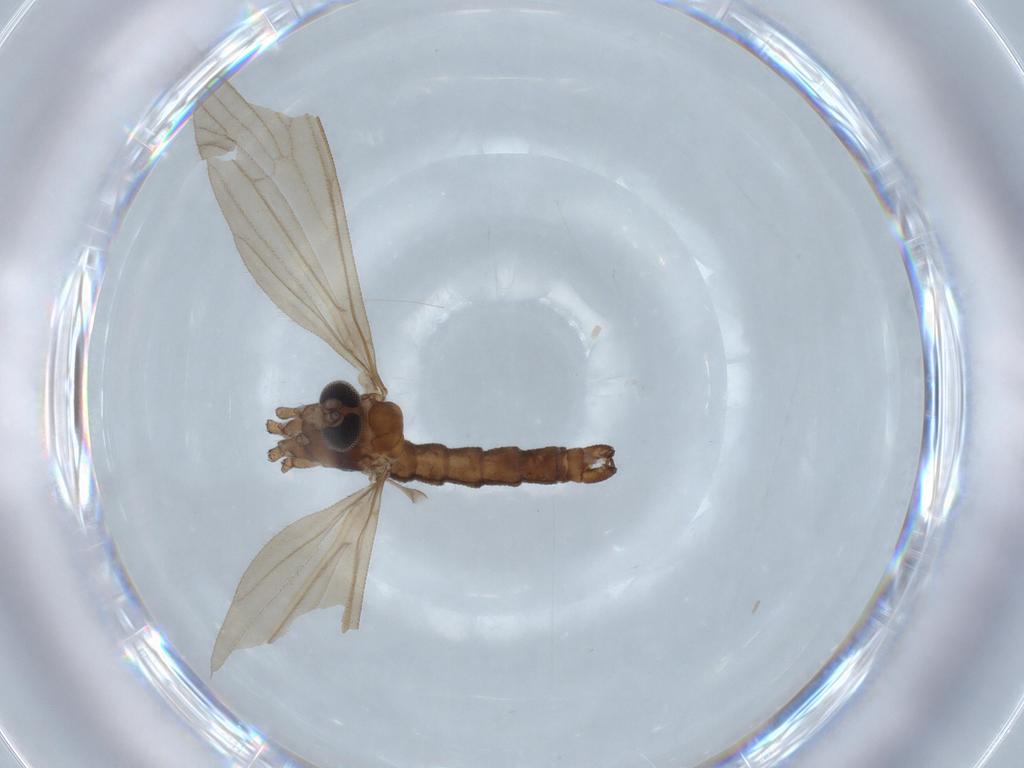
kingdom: Animalia
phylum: Arthropoda
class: Insecta
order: Diptera
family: Limoniidae
